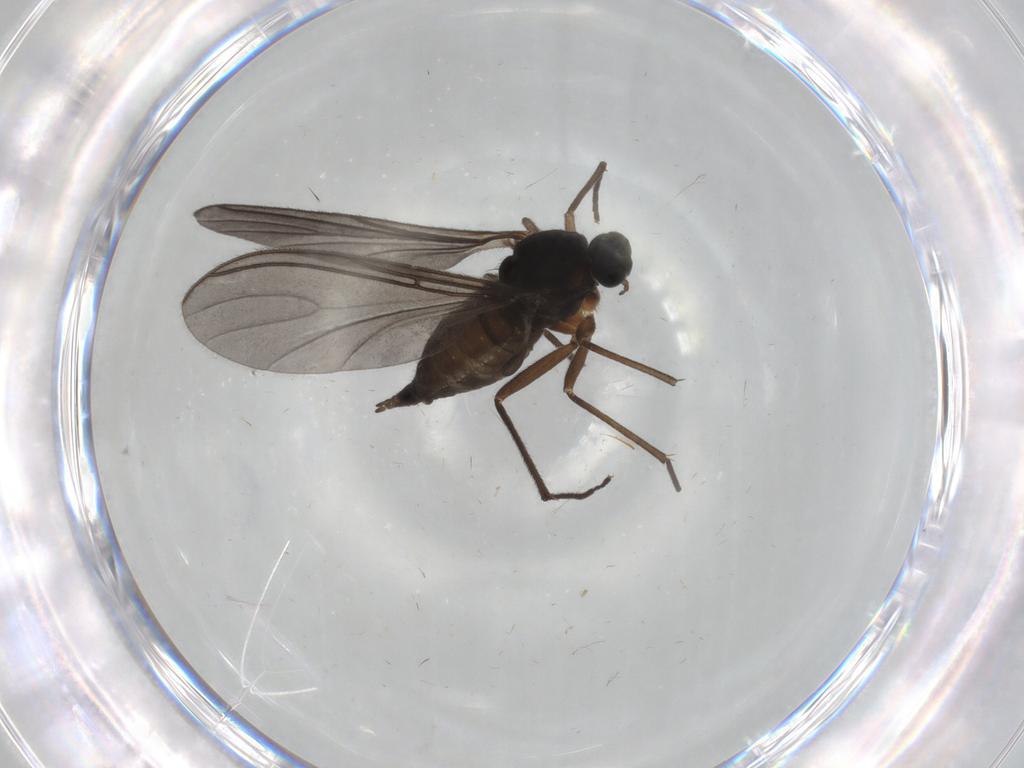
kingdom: Animalia
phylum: Arthropoda
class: Insecta
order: Diptera
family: Sciaridae
